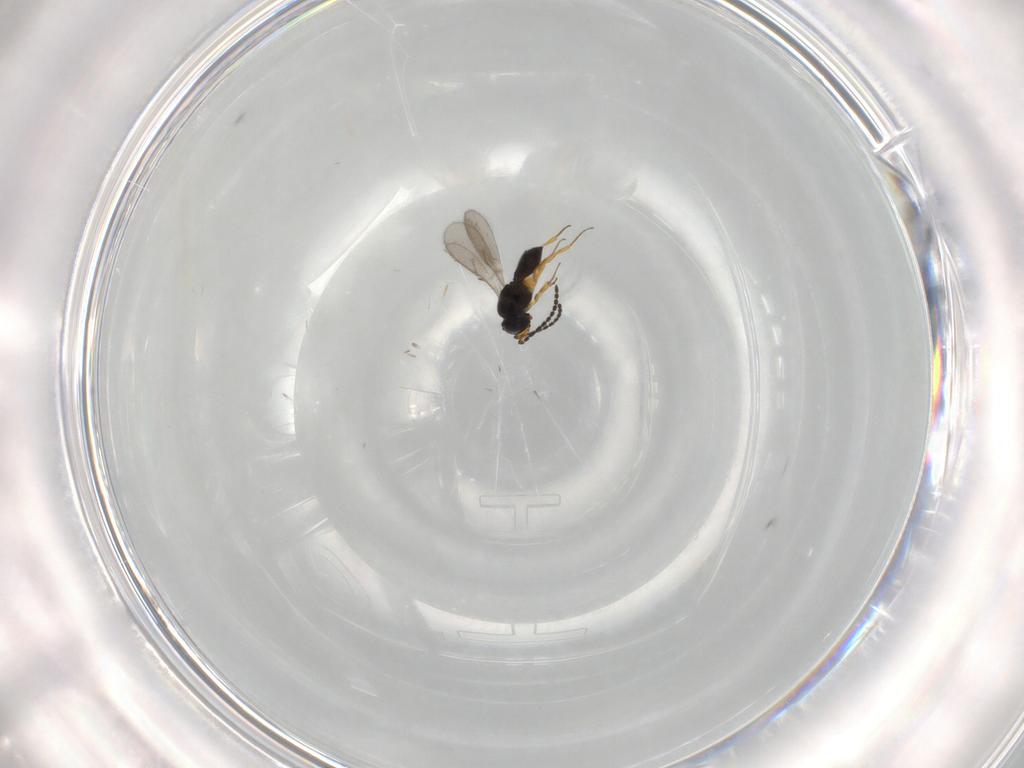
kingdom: Animalia
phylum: Arthropoda
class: Insecta
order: Hymenoptera
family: Scelionidae
